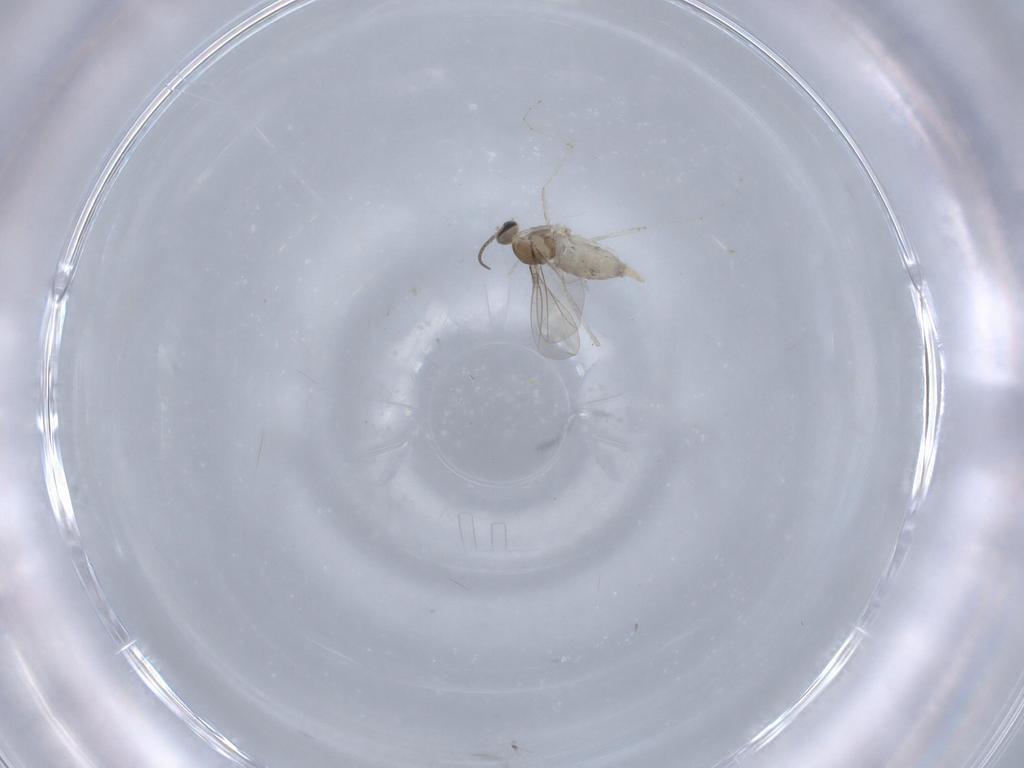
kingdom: Animalia
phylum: Arthropoda
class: Insecta
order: Diptera
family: Cecidomyiidae
